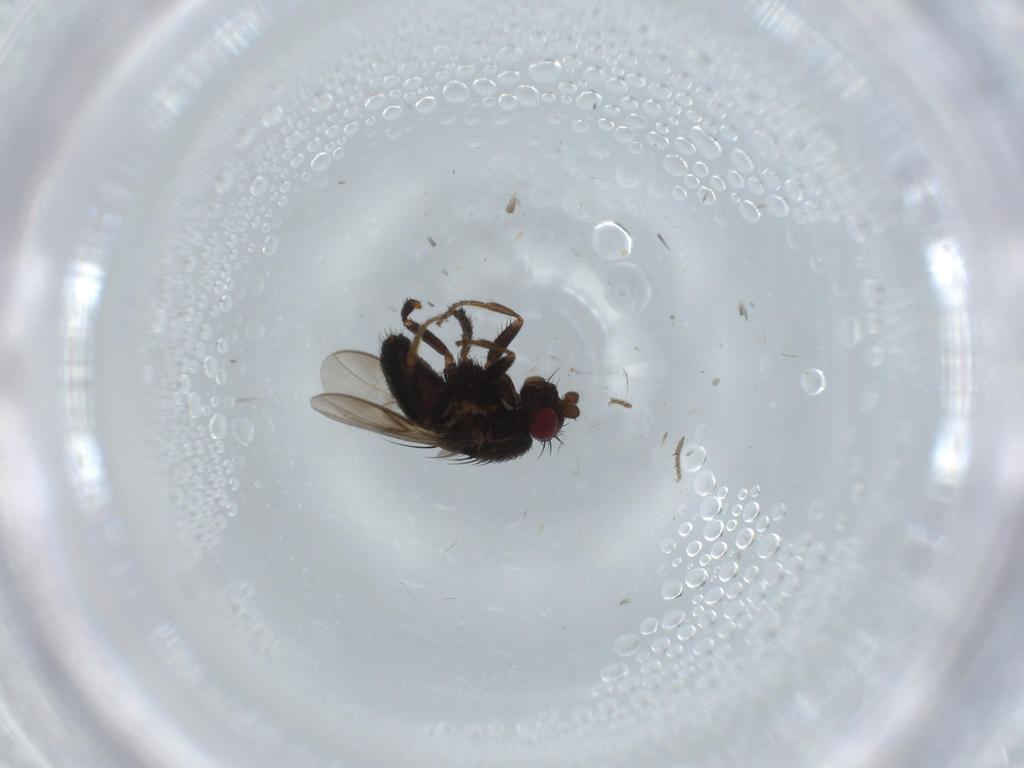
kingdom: Animalia
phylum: Arthropoda
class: Insecta
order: Diptera
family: Sphaeroceridae
